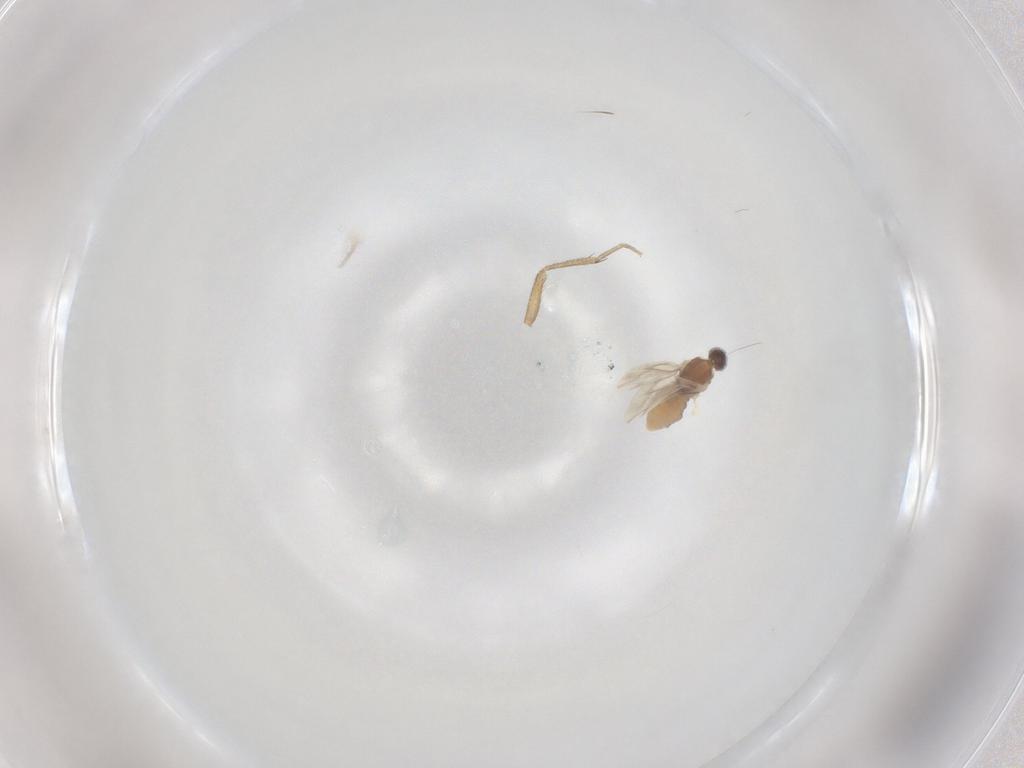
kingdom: Animalia
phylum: Arthropoda
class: Insecta
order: Diptera
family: Cecidomyiidae
